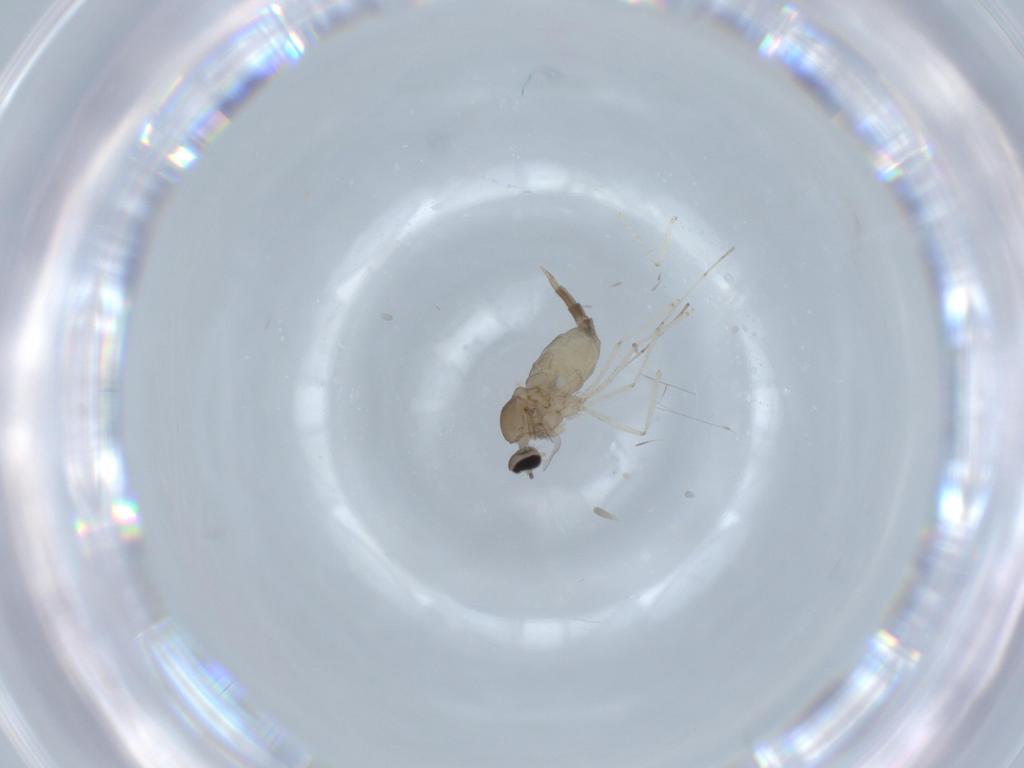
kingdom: Animalia
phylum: Arthropoda
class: Insecta
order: Diptera
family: Cecidomyiidae
